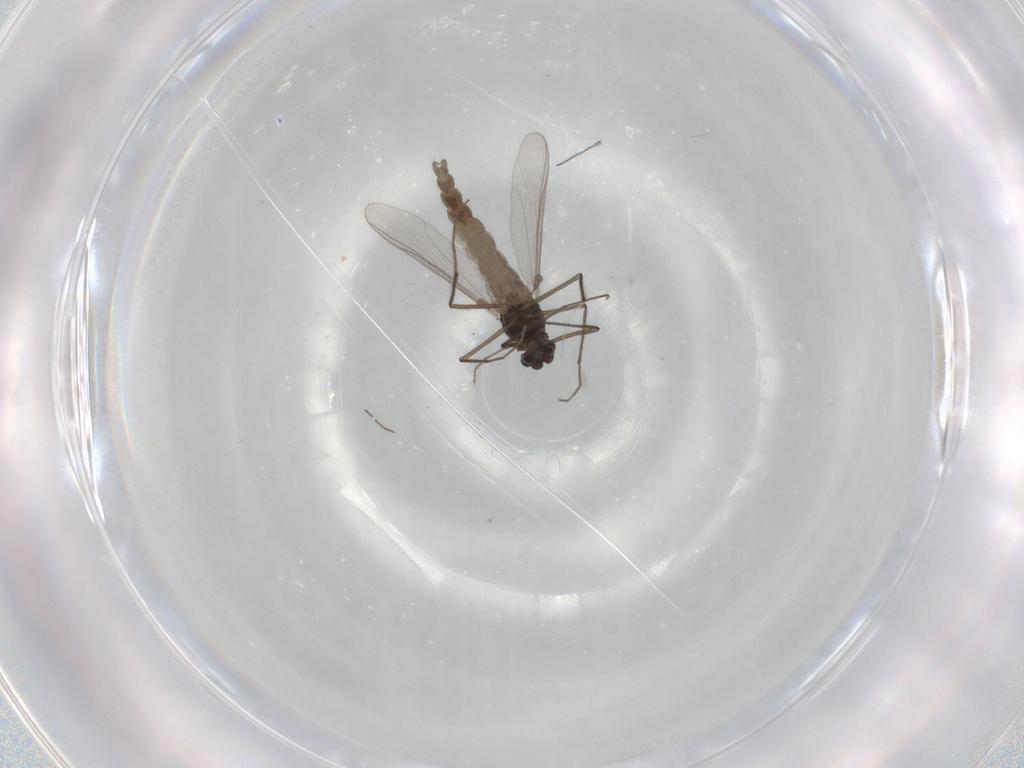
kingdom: Animalia
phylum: Arthropoda
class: Insecta
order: Diptera
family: Chironomidae
